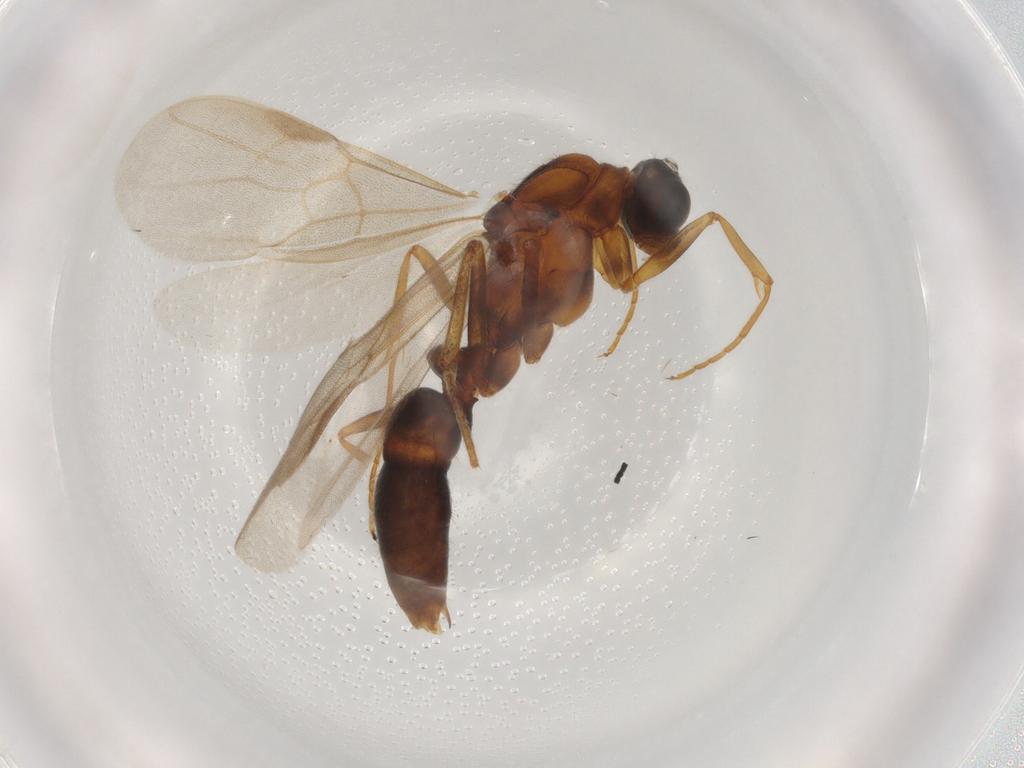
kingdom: Animalia
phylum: Arthropoda
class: Insecta
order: Hymenoptera
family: Formicidae
